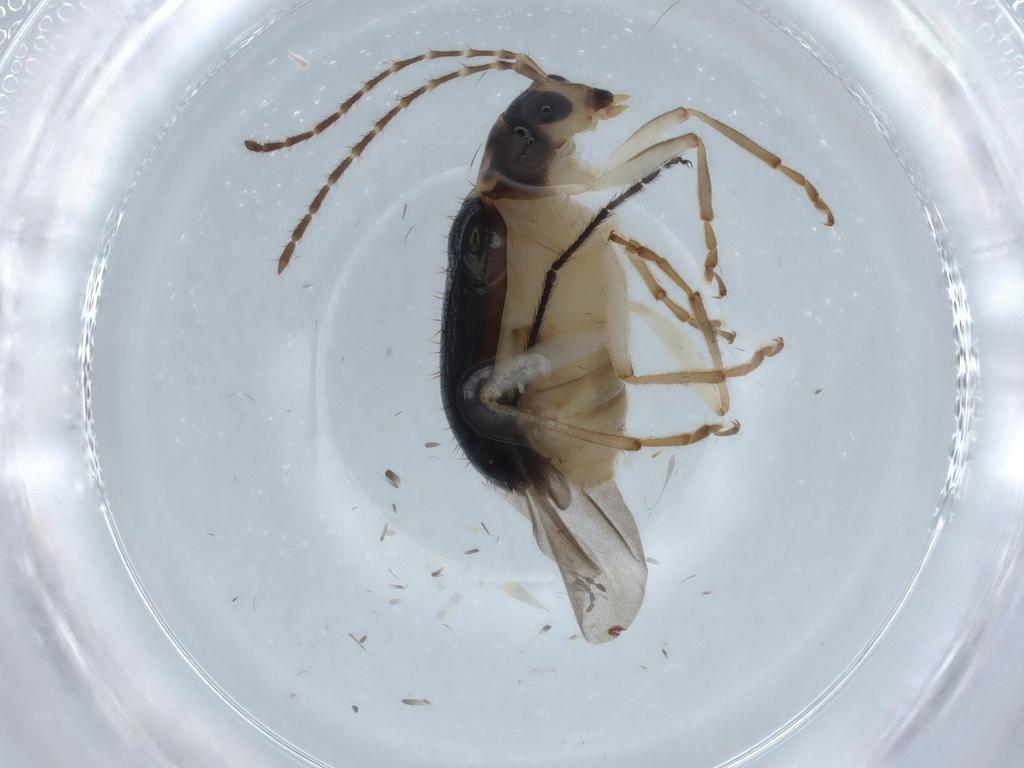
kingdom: Animalia
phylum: Arthropoda
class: Insecta
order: Coleoptera
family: Chrysomelidae
